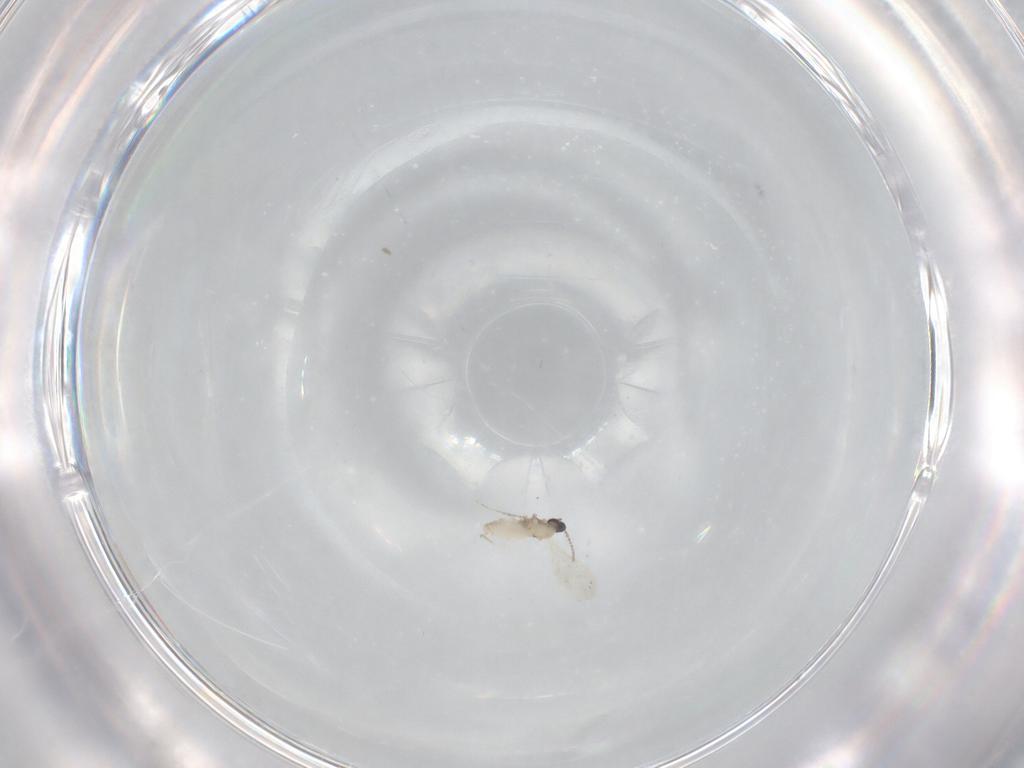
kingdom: Animalia
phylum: Arthropoda
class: Insecta
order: Diptera
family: Cecidomyiidae
